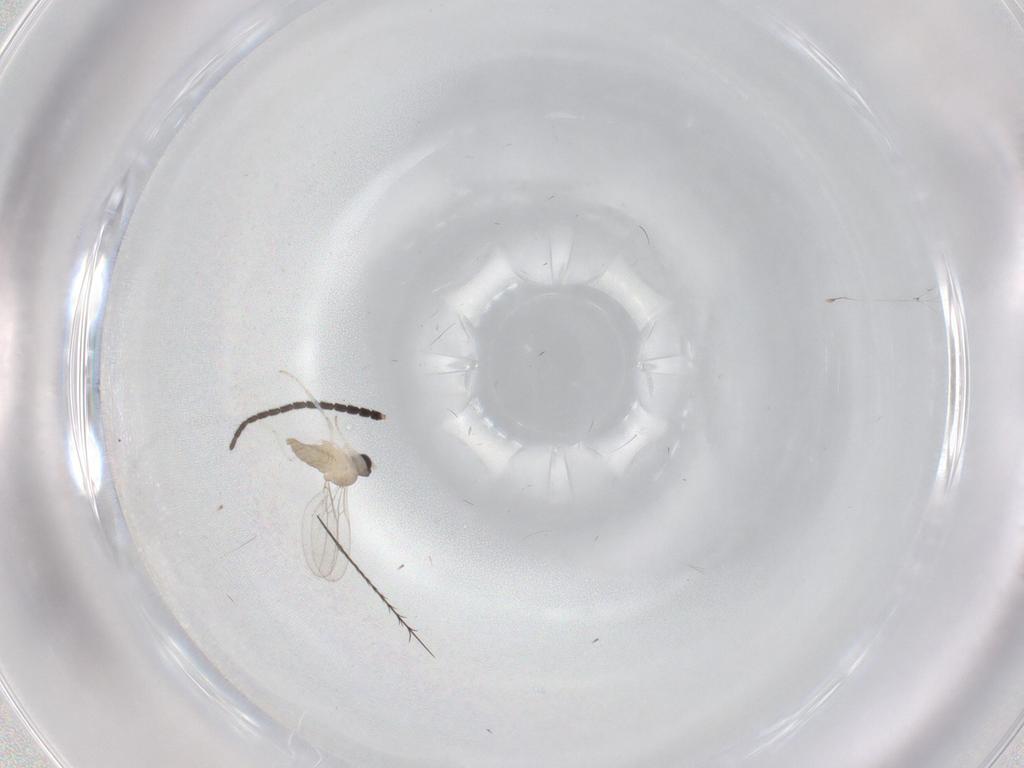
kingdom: Animalia
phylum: Arthropoda
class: Insecta
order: Diptera
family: Cecidomyiidae
